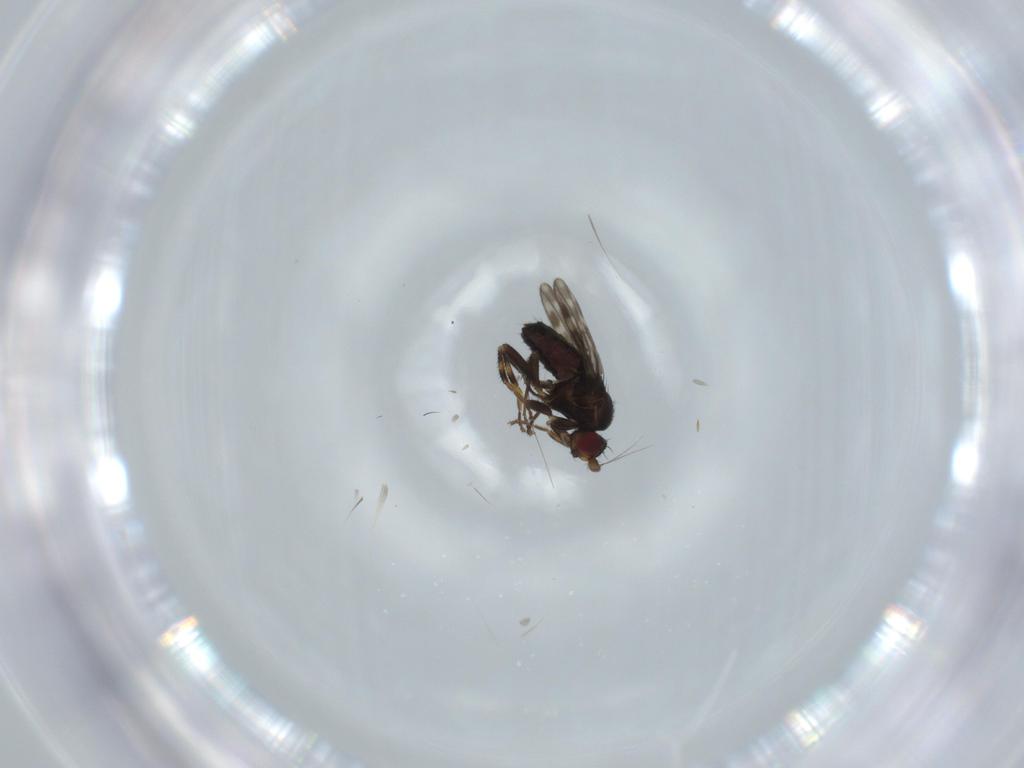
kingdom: Animalia
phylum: Arthropoda
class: Insecta
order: Diptera
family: Sphaeroceridae
